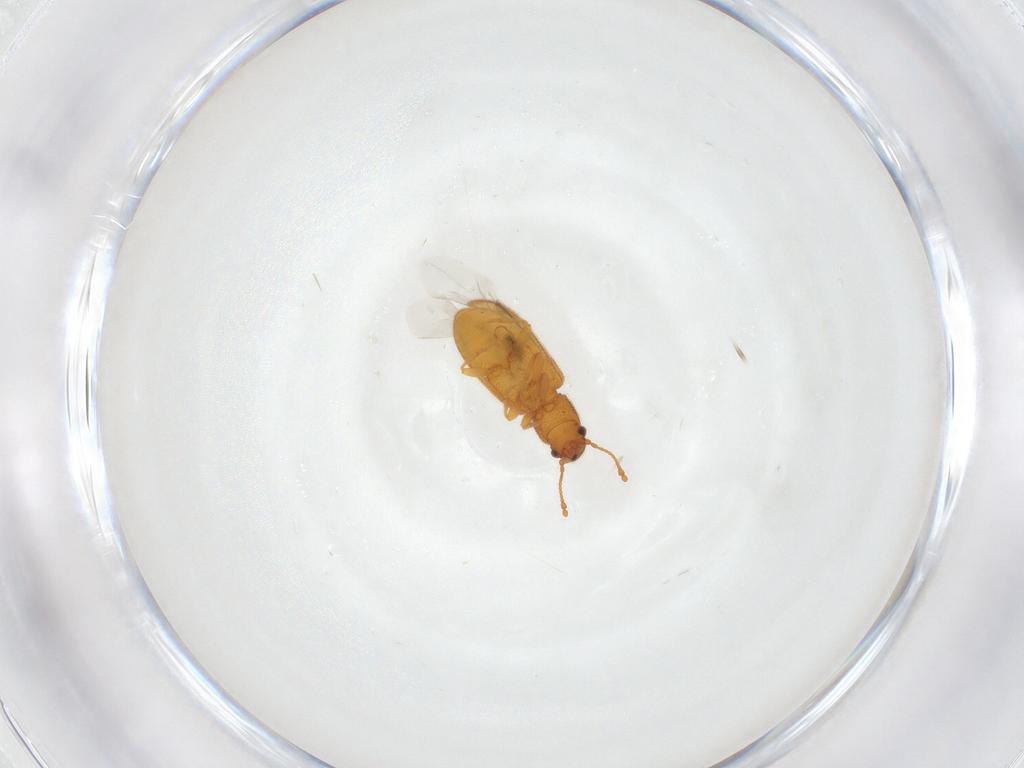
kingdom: Animalia
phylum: Arthropoda
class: Insecta
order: Coleoptera
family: Mycetophagidae
